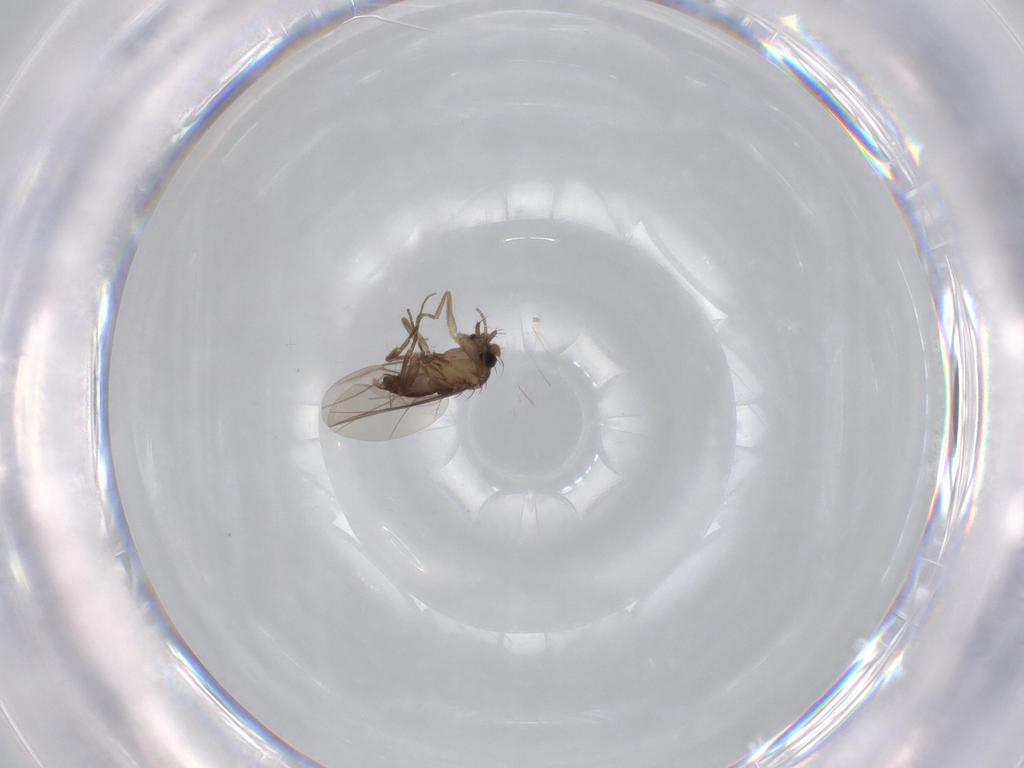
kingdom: Animalia
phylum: Arthropoda
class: Insecta
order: Diptera
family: Phoridae
